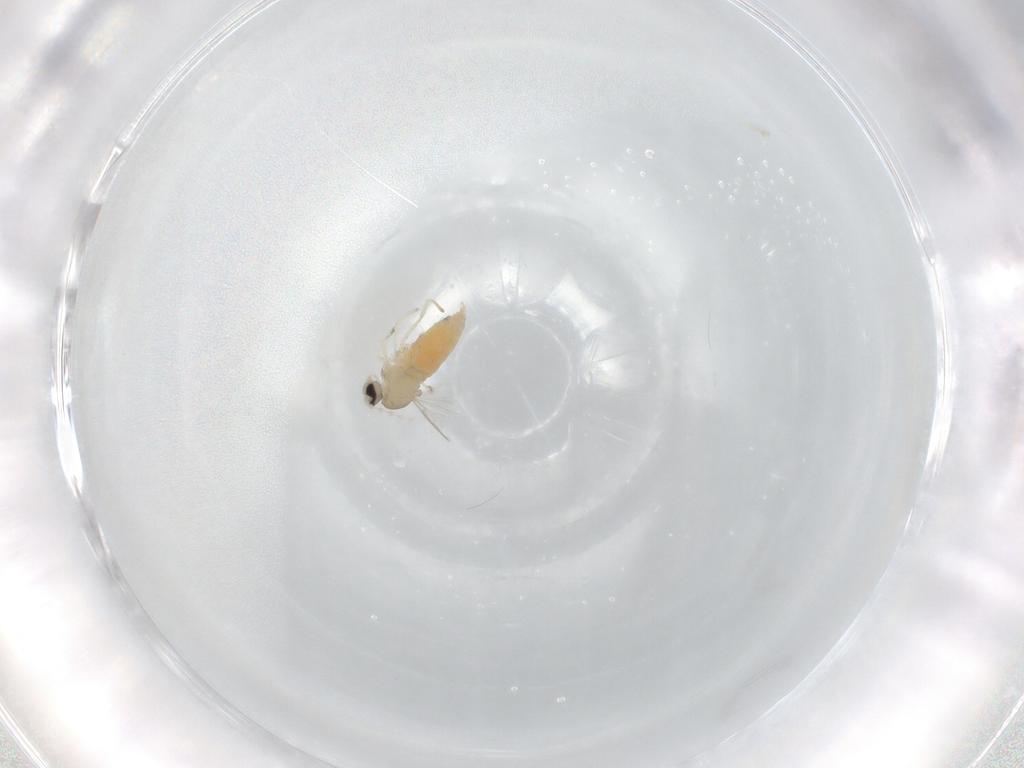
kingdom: Animalia
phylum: Arthropoda
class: Insecta
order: Diptera
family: Cecidomyiidae
